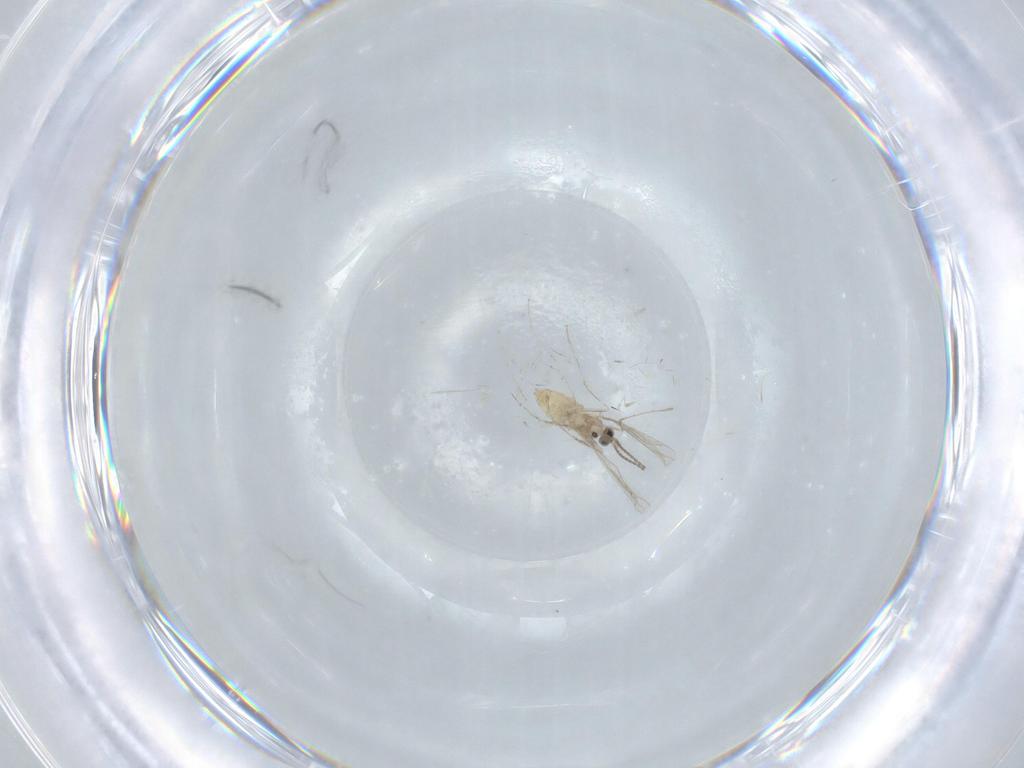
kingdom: Animalia
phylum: Arthropoda
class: Insecta
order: Diptera
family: Cecidomyiidae
